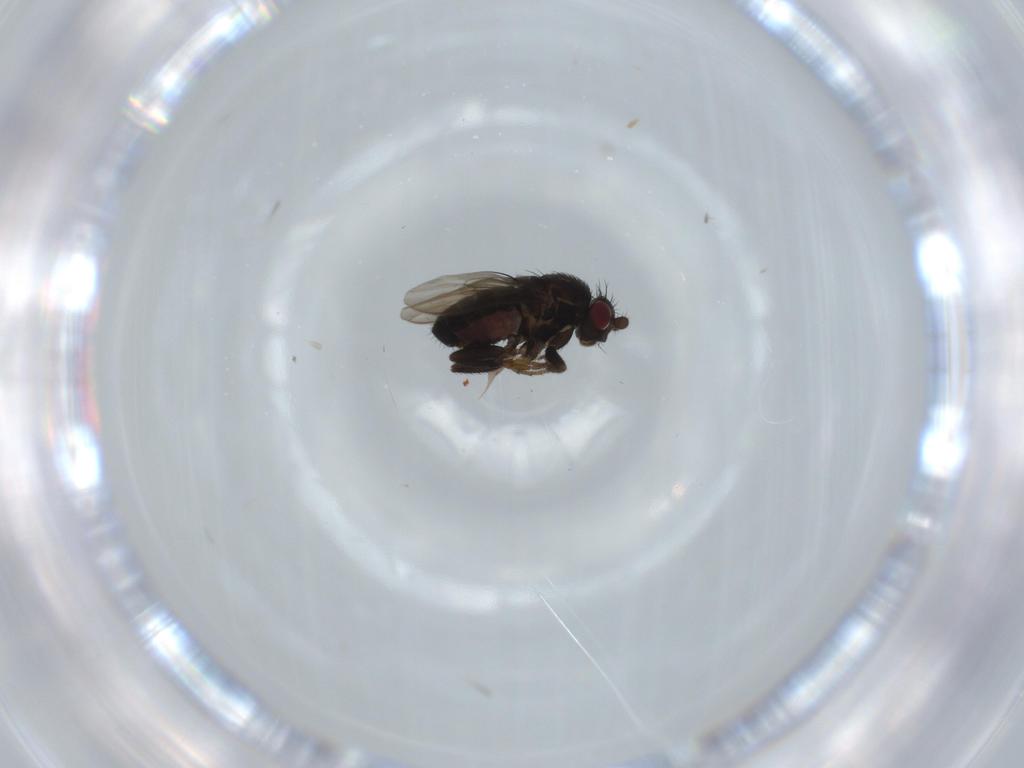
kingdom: Animalia
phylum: Arthropoda
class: Insecta
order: Diptera
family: Sphaeroceridae
